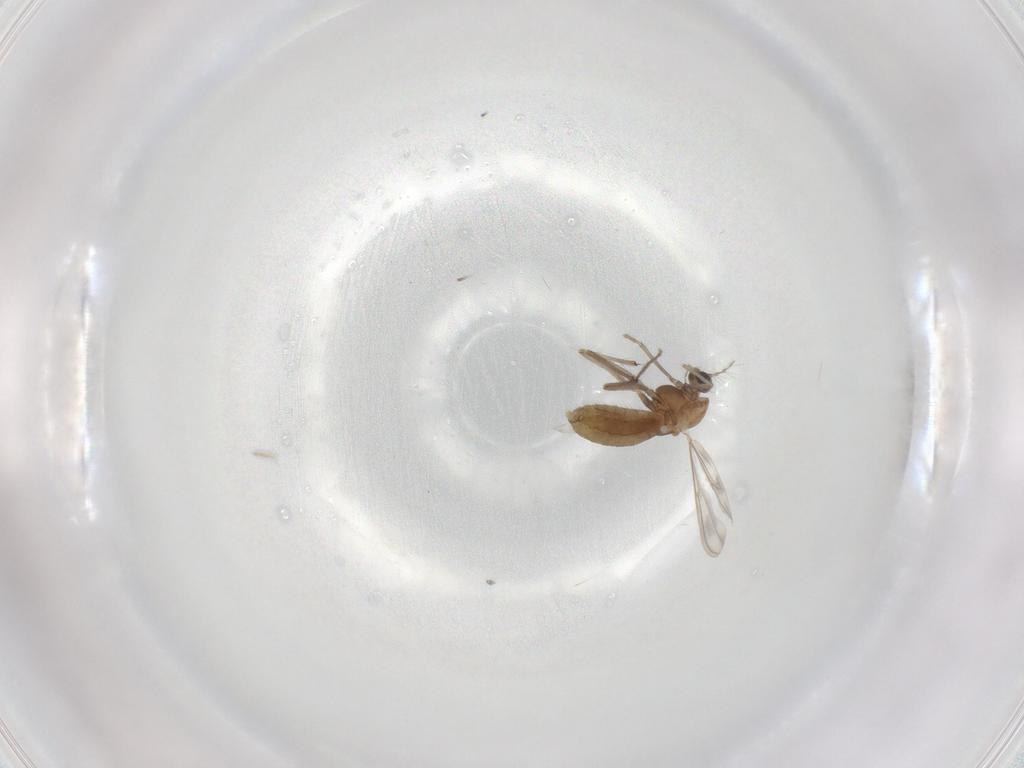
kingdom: Animalia
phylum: Arthropoda
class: Insecta
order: Diptera
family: Chironomidae
